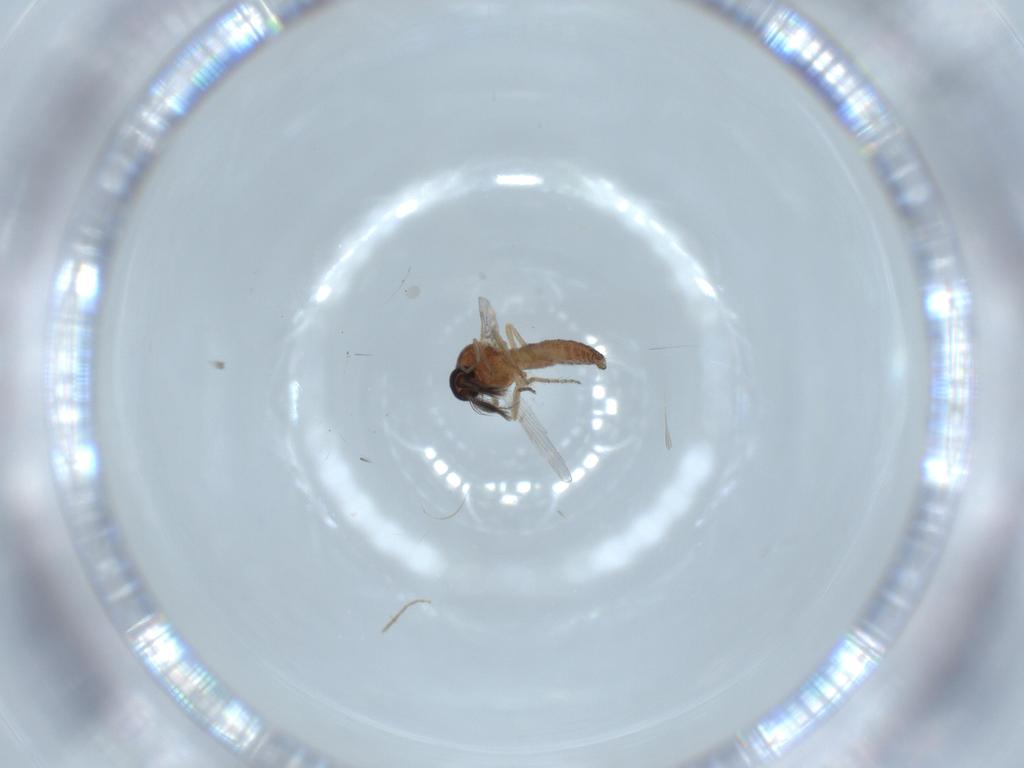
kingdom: Animalia
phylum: Arthropoda
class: Insecta
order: Diptera
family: Ceratopogonidae
